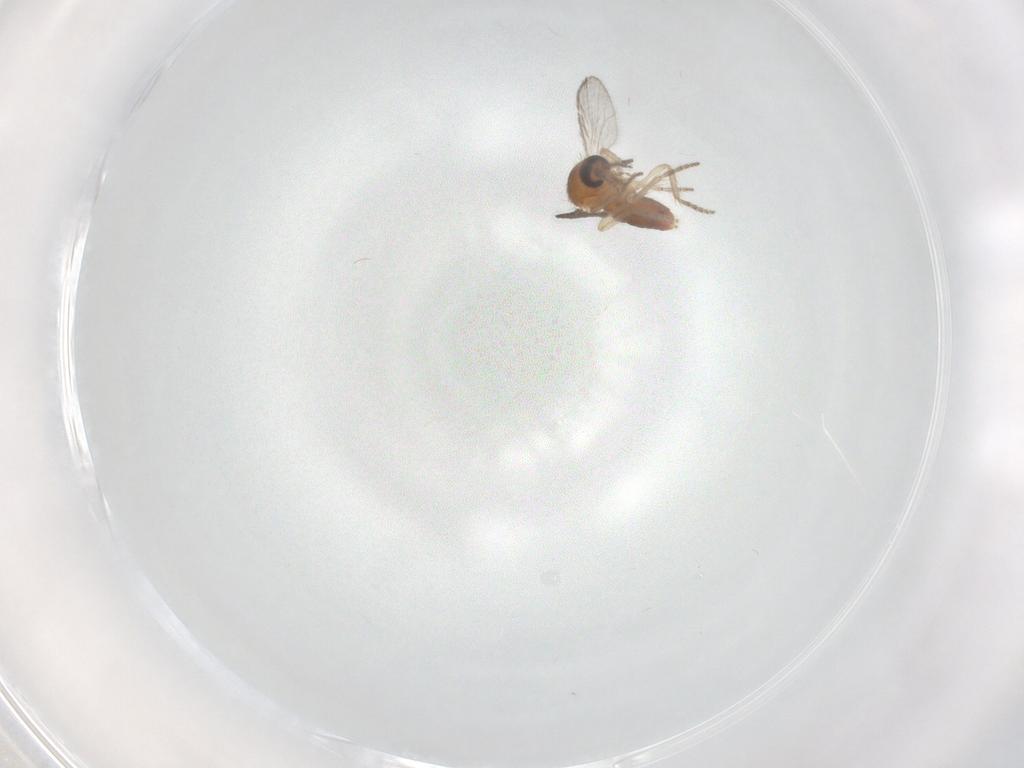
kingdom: Animalia
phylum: Arthropoda
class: Insecta
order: Diptera
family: Ceratopogonidae
